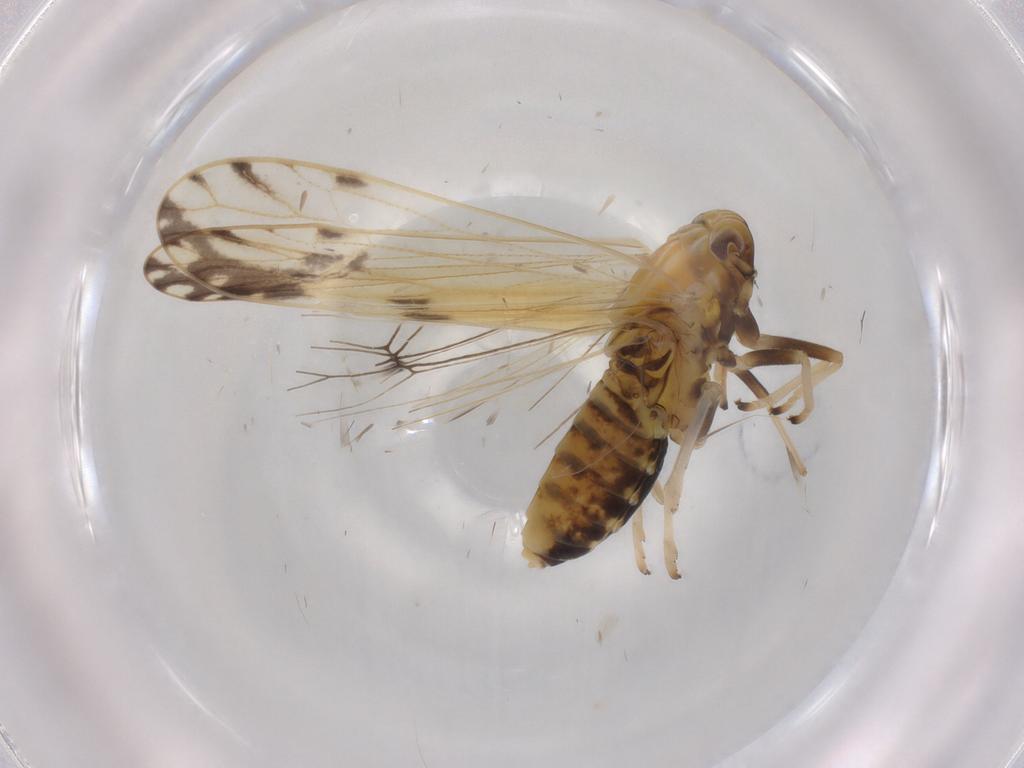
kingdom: Animalia
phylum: Arthropoda
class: Insecta
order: Hemiptera
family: Delphacidae
